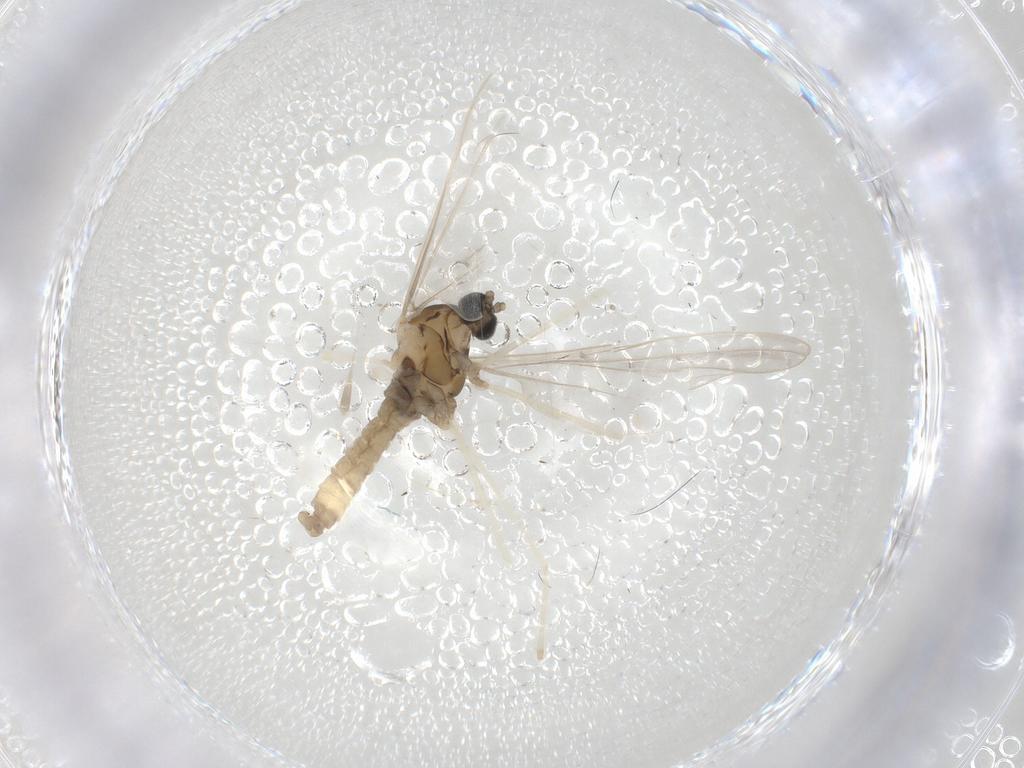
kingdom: Animalia
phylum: Arthropoda
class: Insecta
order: Diptera
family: Cecidomyiidae
